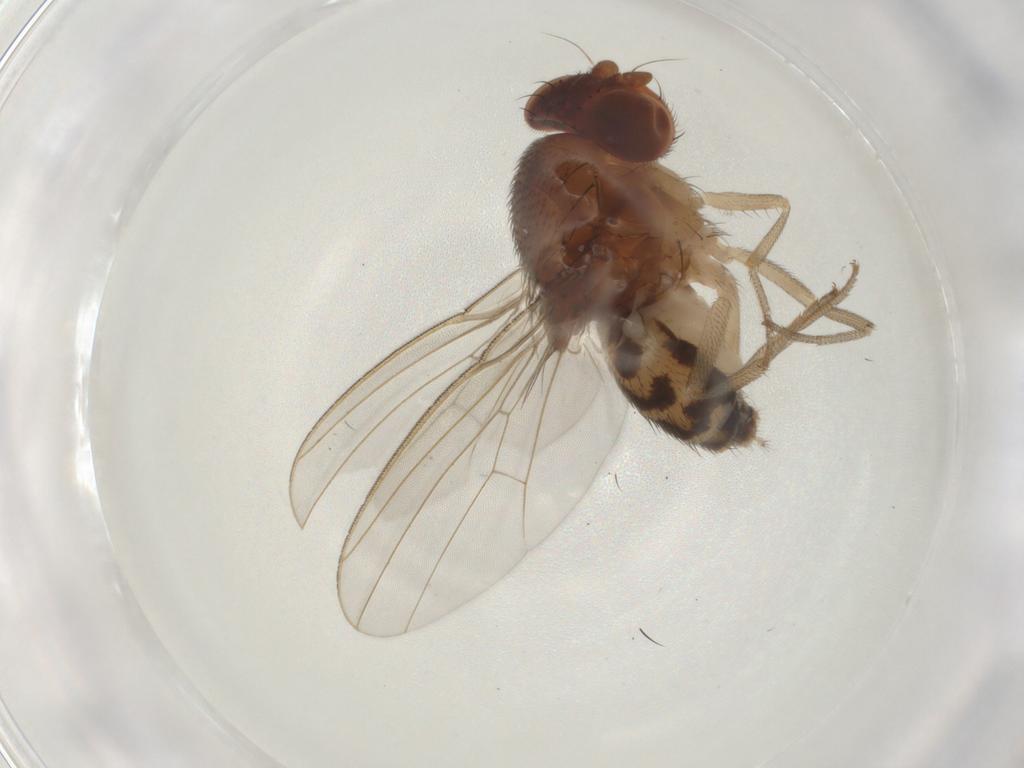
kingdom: Animalia
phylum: Arthropoda
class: Insecta
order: Diptera
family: Drosophilidae
